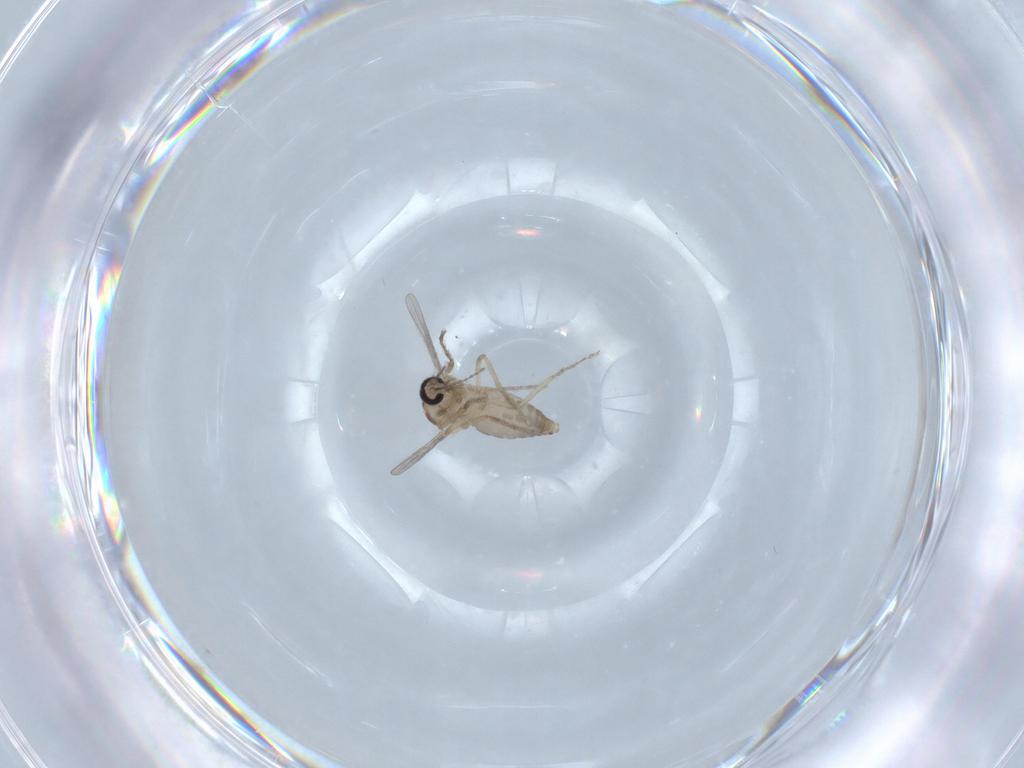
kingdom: Animalia
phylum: Arthropoda
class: Insecta
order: Diptera
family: Ceratopogonidae
